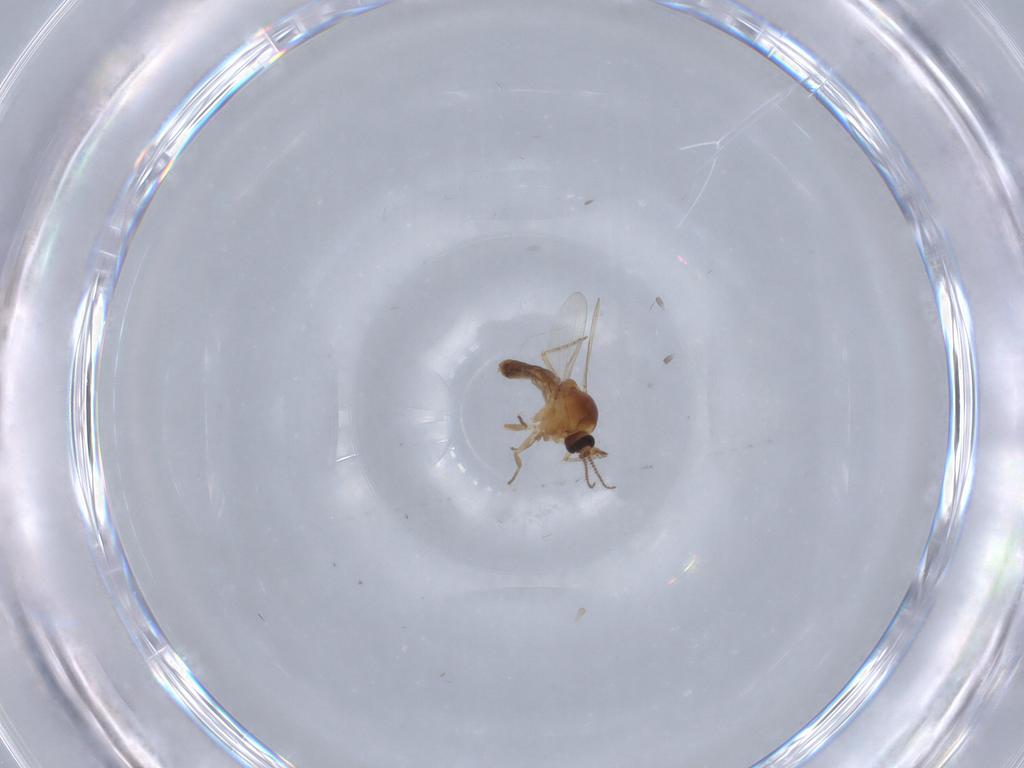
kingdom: Animalia
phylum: Arthropoda
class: Insecta
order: Diptera
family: Ceratopogonidae
